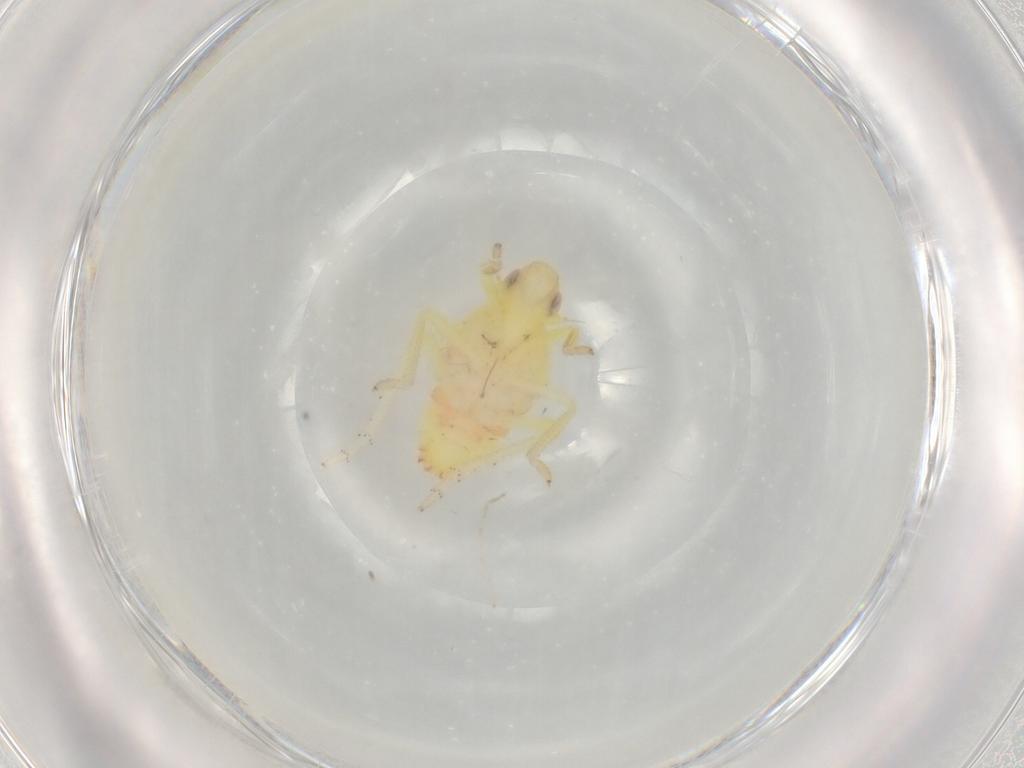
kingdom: Animalia
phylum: Arthropoda
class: Insecta
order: Hemiptera
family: Tropiduchidae
